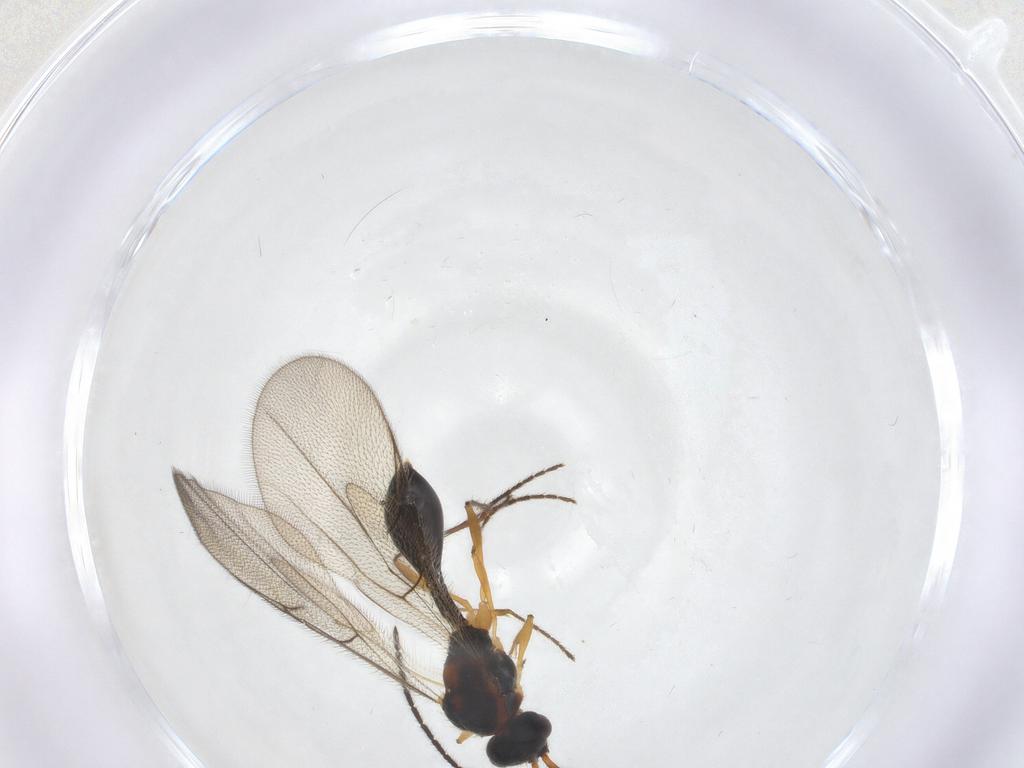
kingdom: Animalia
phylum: Arthropoda
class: Insecta
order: Hymenoptera
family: Diapriidae
